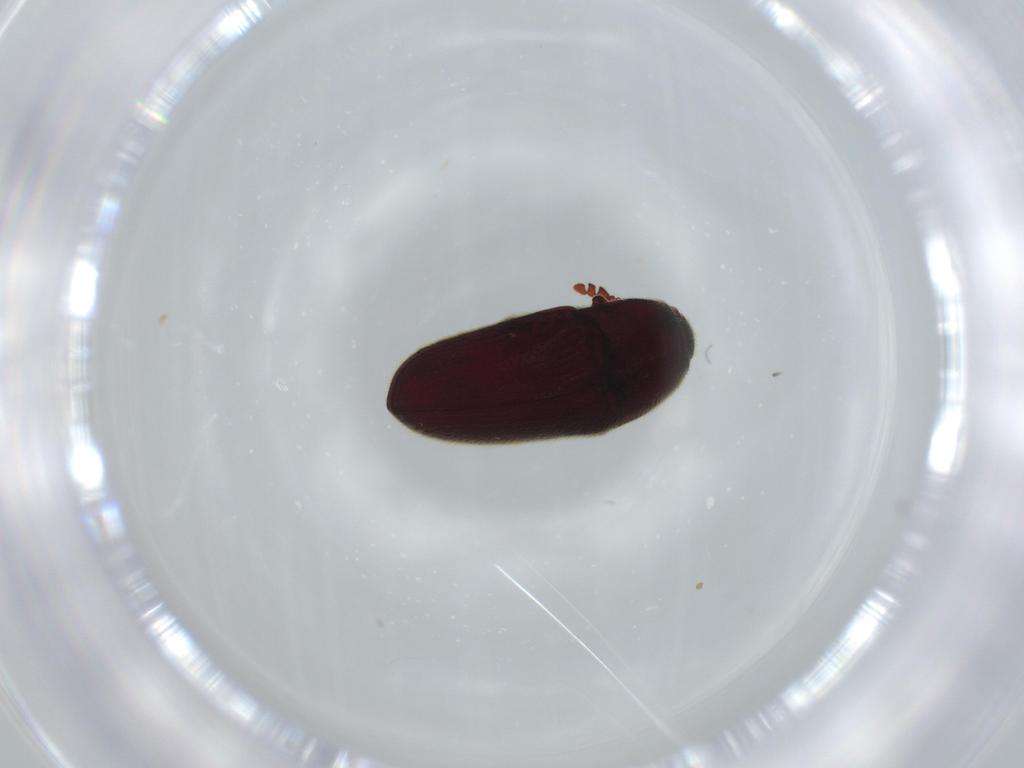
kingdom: Animalia
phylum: Arthropoda
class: Insecta
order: Coleoptera
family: Throscidae
